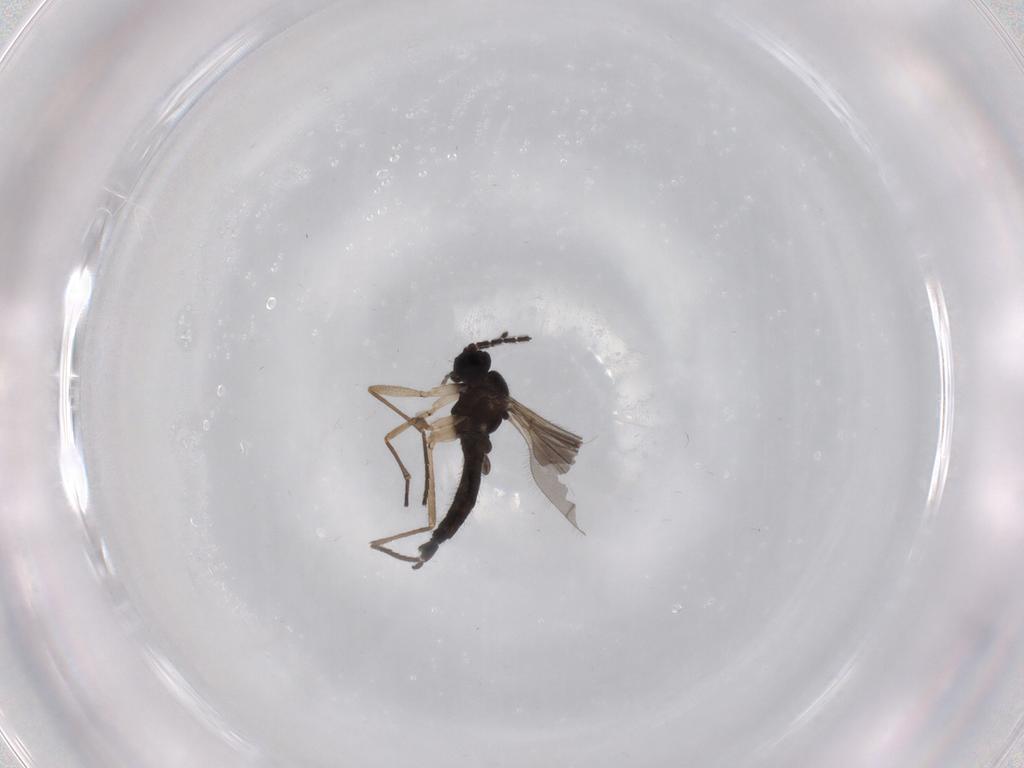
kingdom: Animalia
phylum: Arthropoda
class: Insecta
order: Diptera
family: Sciaridae
